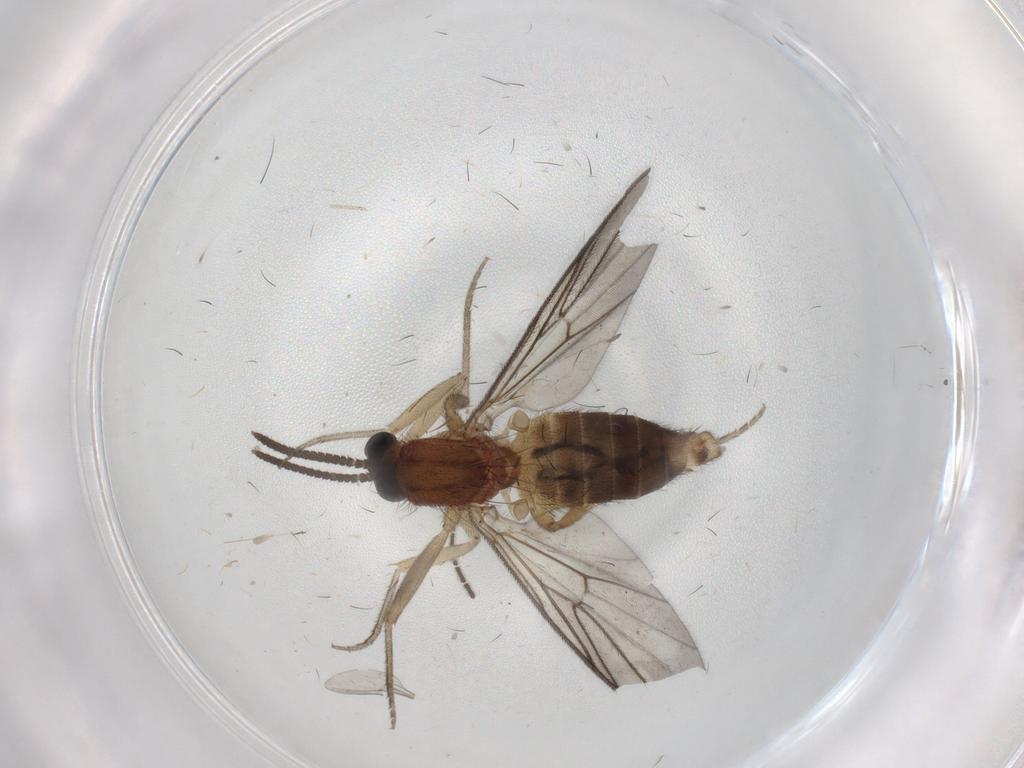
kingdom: Animalia
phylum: Arthropoda
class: Insecta
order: Diptera
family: Anisopodidae
